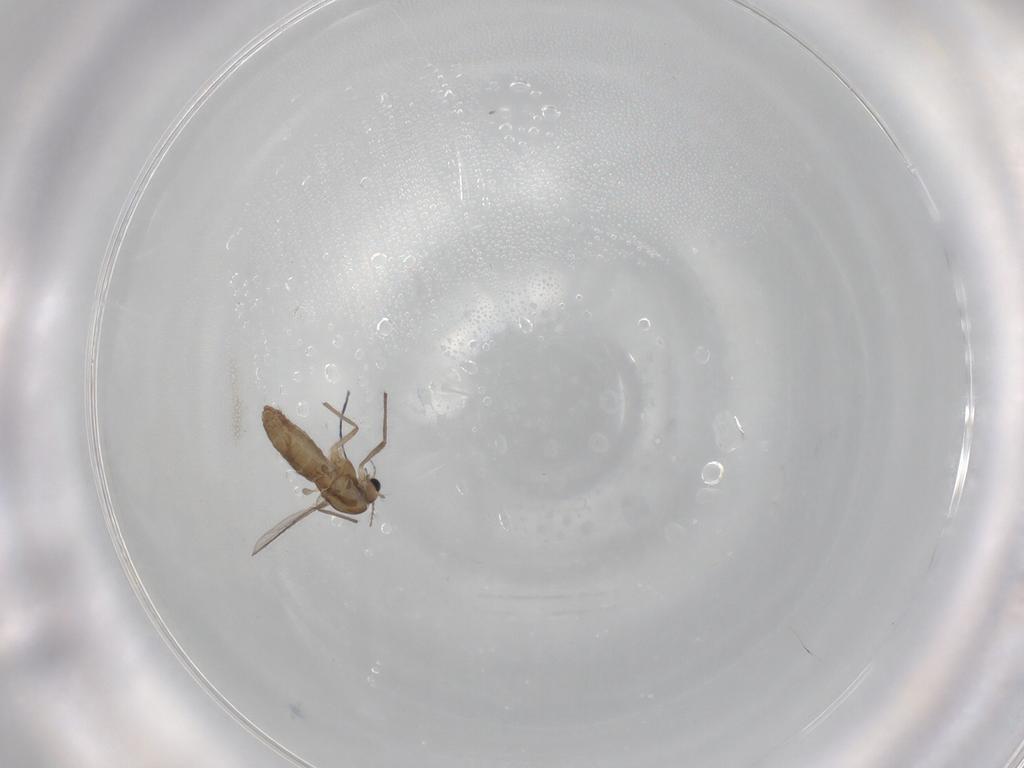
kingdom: Animalia
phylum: Arthropoda
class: Insecta
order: Diptera
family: Chironomidae
